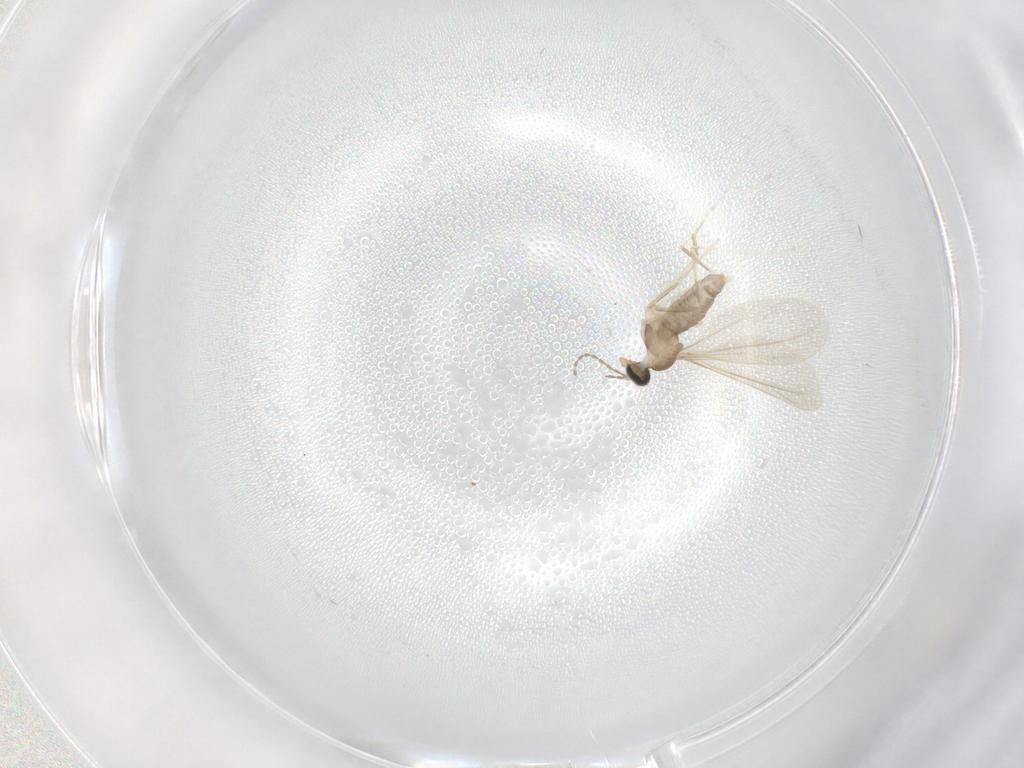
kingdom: Animalia
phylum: Arthropoda
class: Insecta
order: Diptera
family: Cecidomyiidae
